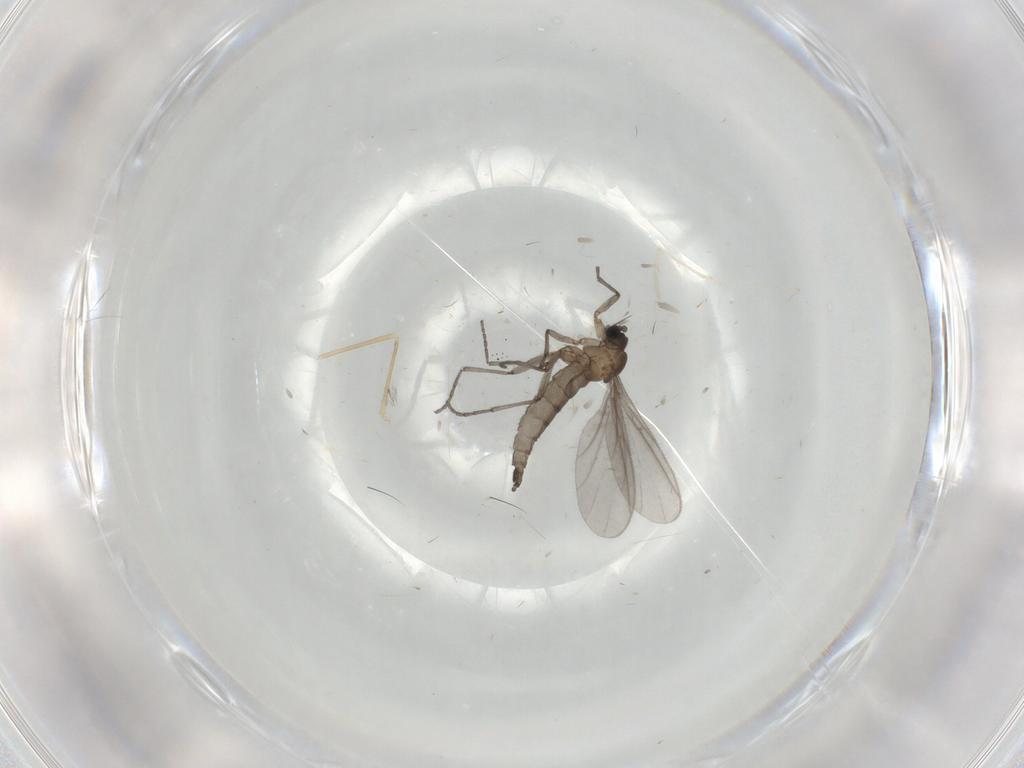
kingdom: Animalia
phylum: Arthropoda
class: Insecta
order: Diptera
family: Sciaridae
